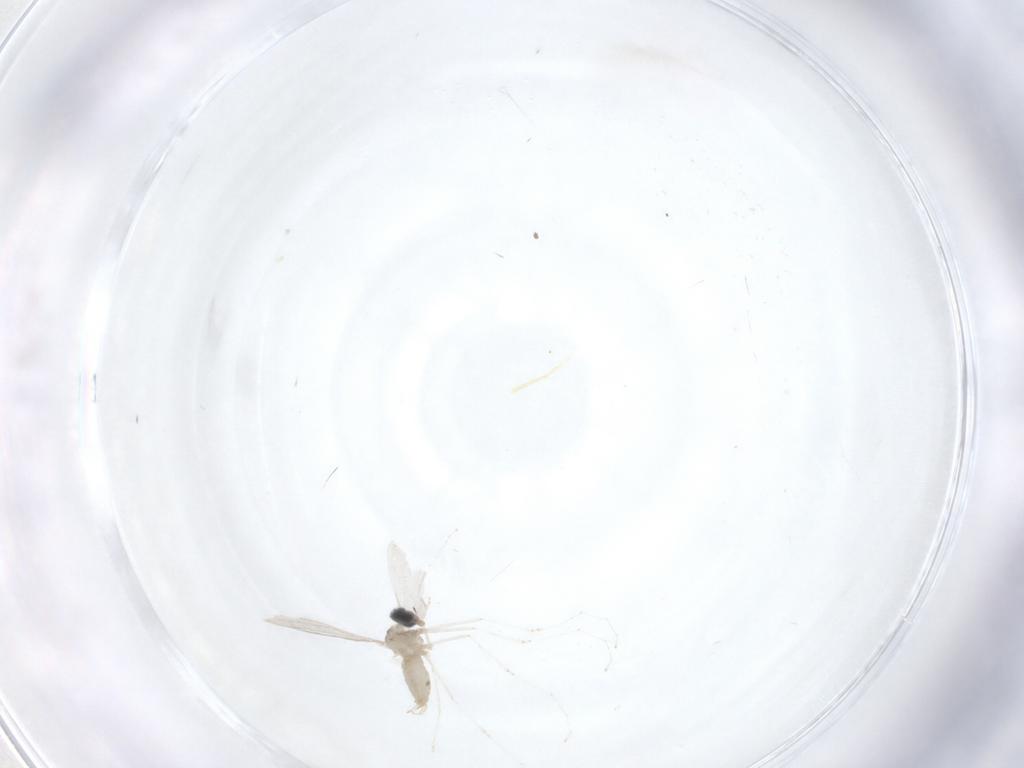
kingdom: Animalia
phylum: Arthropoda
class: Insecta
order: Diptera
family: Cecidomyiidae
